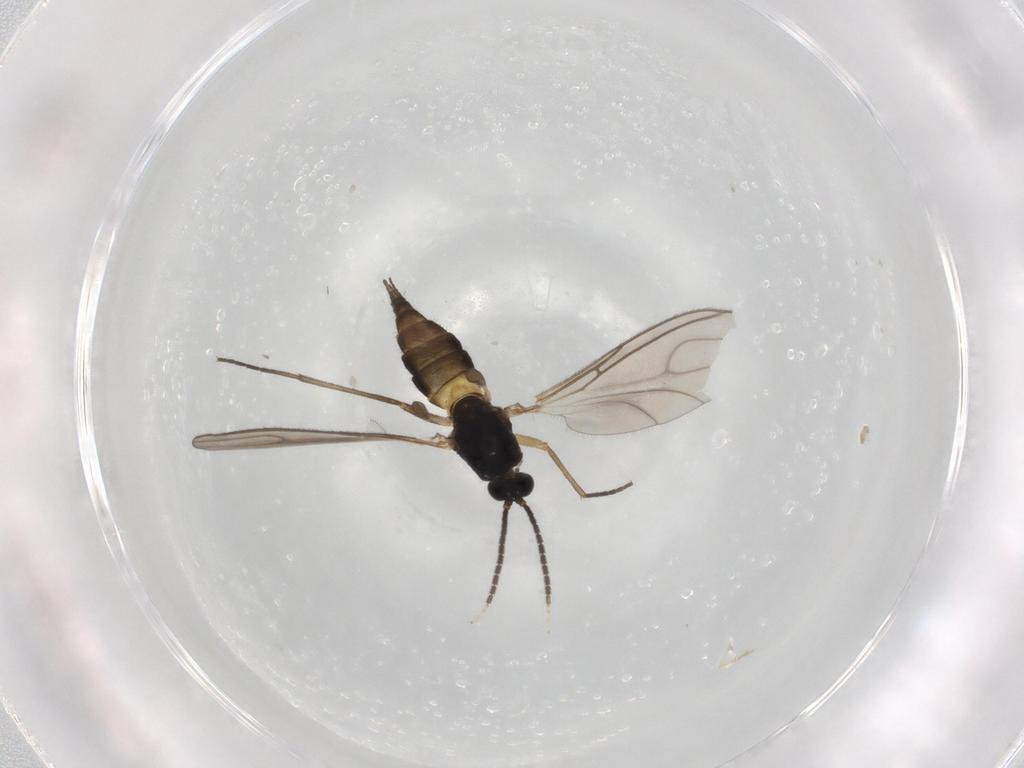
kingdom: Animalia
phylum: Arthropoda
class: Insecta
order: Diptera
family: Sciaridae
